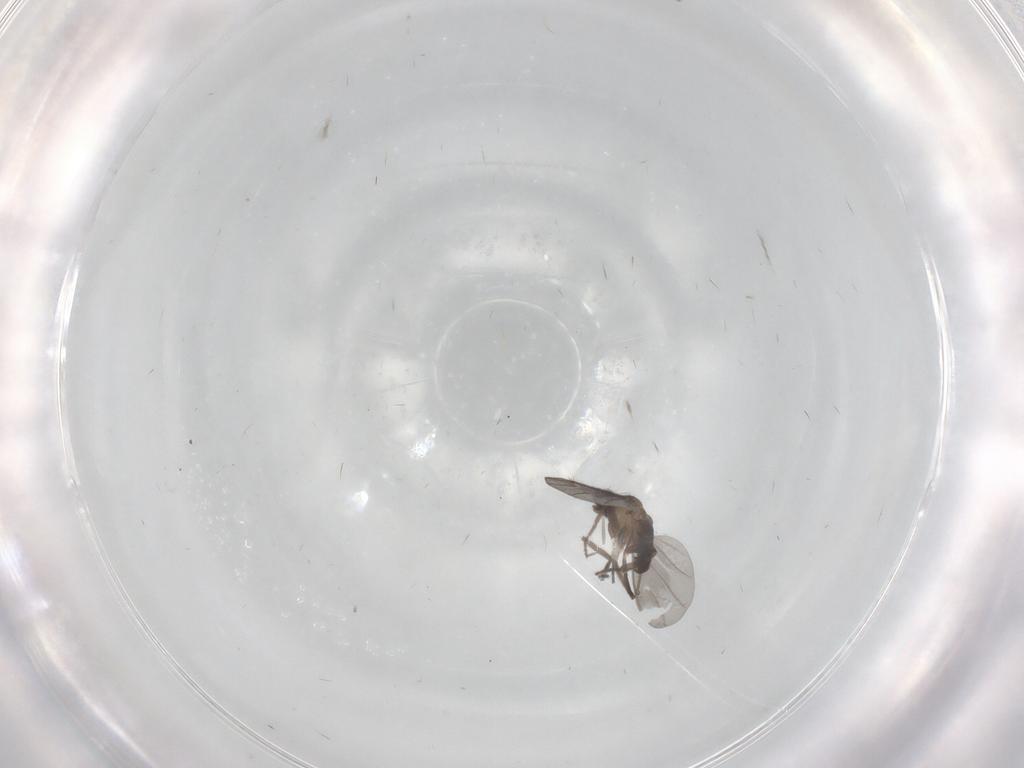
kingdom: Animalia
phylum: Arthropoda
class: Insecta
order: Diptera
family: Phoridae
